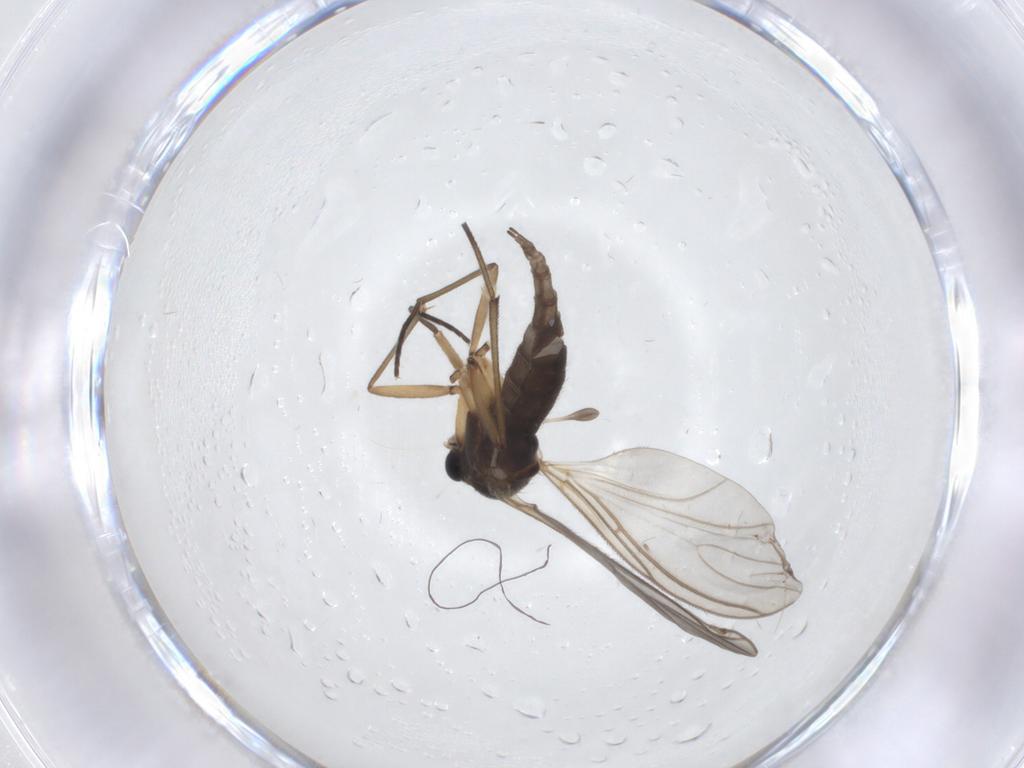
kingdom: Animalia
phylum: Arthropoda
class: Insecta
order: Diptera
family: Sciaridae
